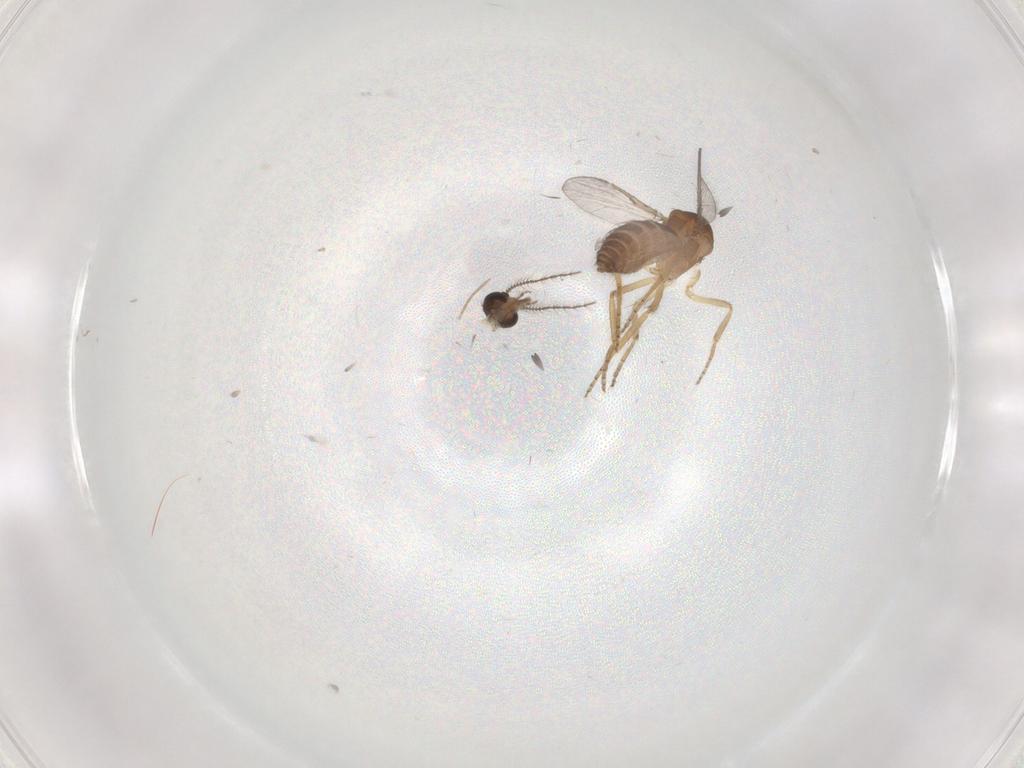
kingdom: Animalia
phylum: Arthropoda
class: Insecta
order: Diptera
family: Ceratopogonidae
